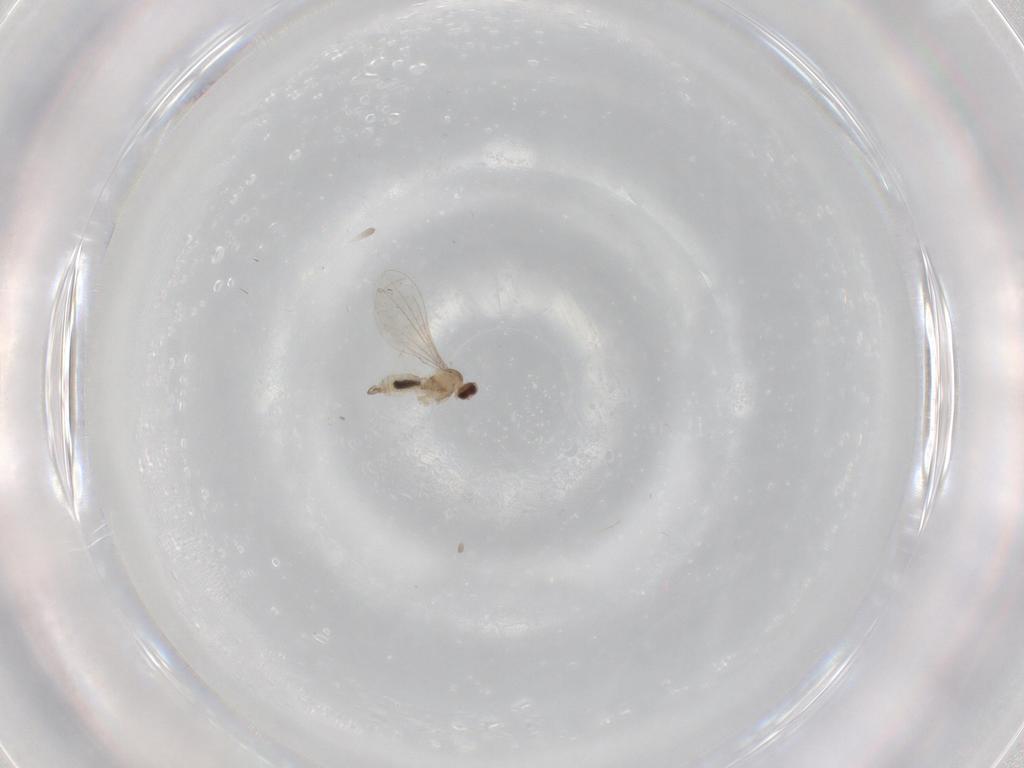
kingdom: Animalia
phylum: Arthropoda
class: Insecta
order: Diptera
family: Cecidomyiidae
